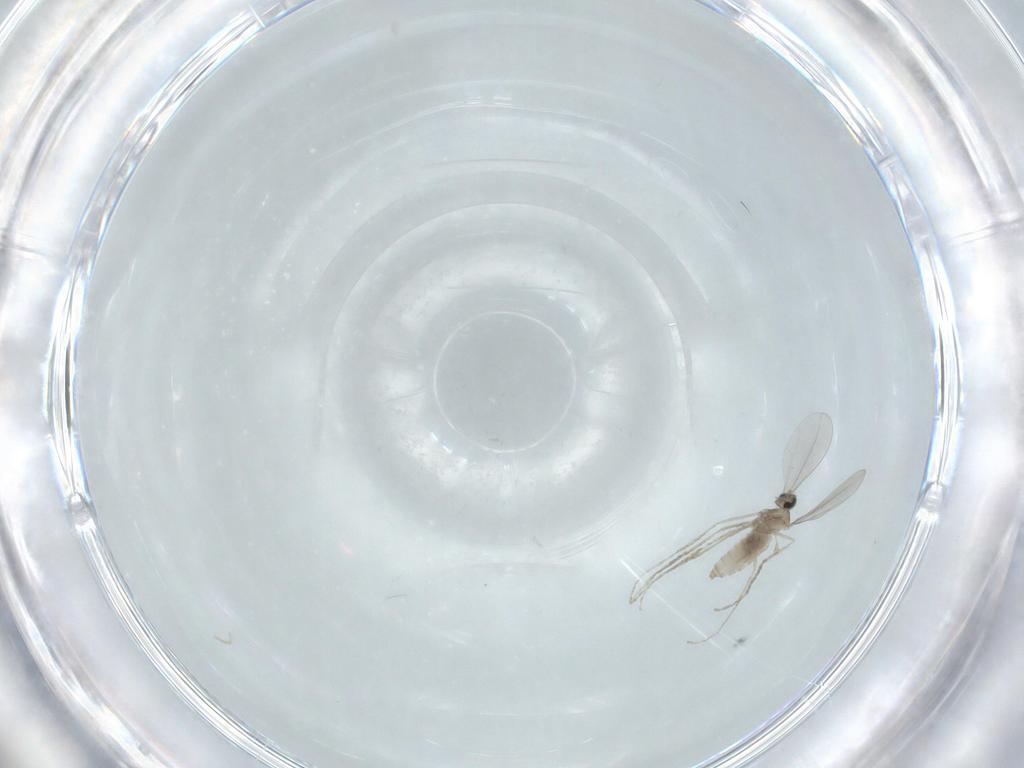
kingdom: Animalia
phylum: Arthropoda
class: Insecta
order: Diptera
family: Cecidomyiidae
